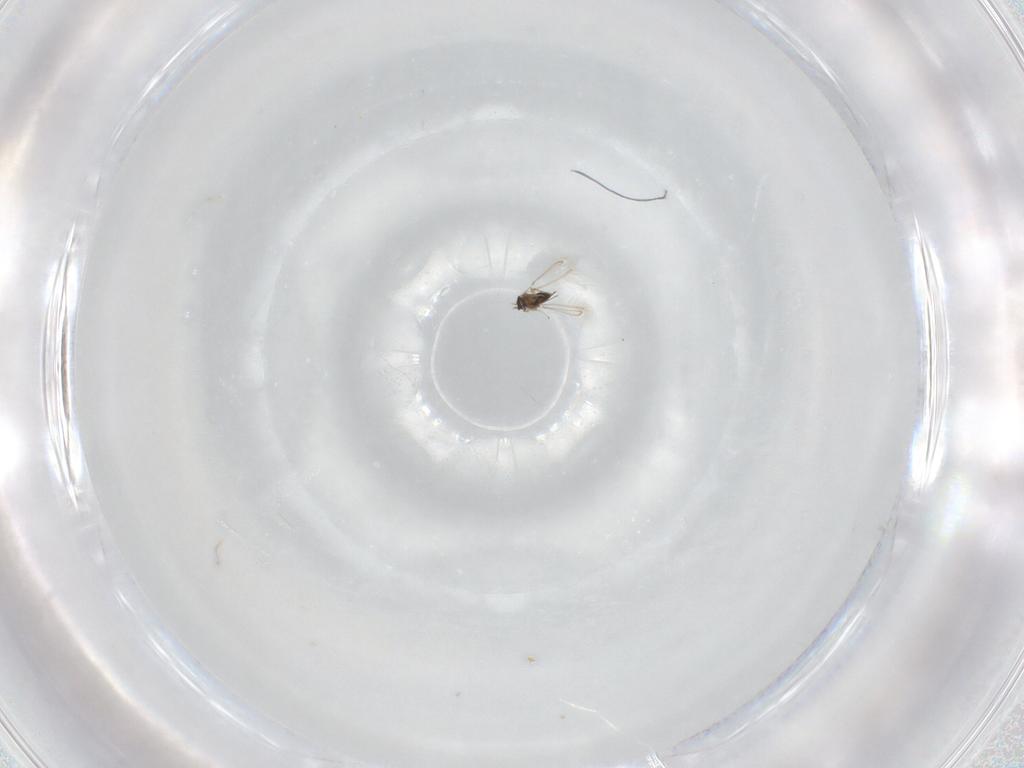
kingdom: Animalia
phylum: Arthropoda
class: Insecta
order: Hymenoptera
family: Mymaridae
